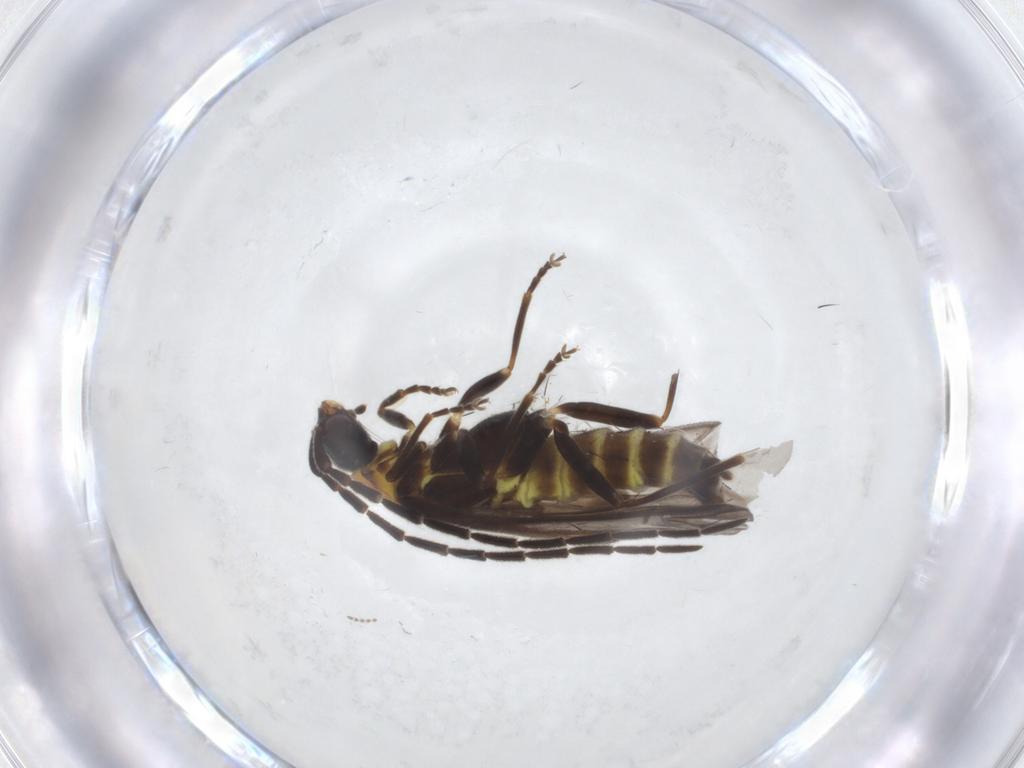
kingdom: Animalia
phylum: Arthropoda
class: Insecta
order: Coleoptera
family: Cantharidae
